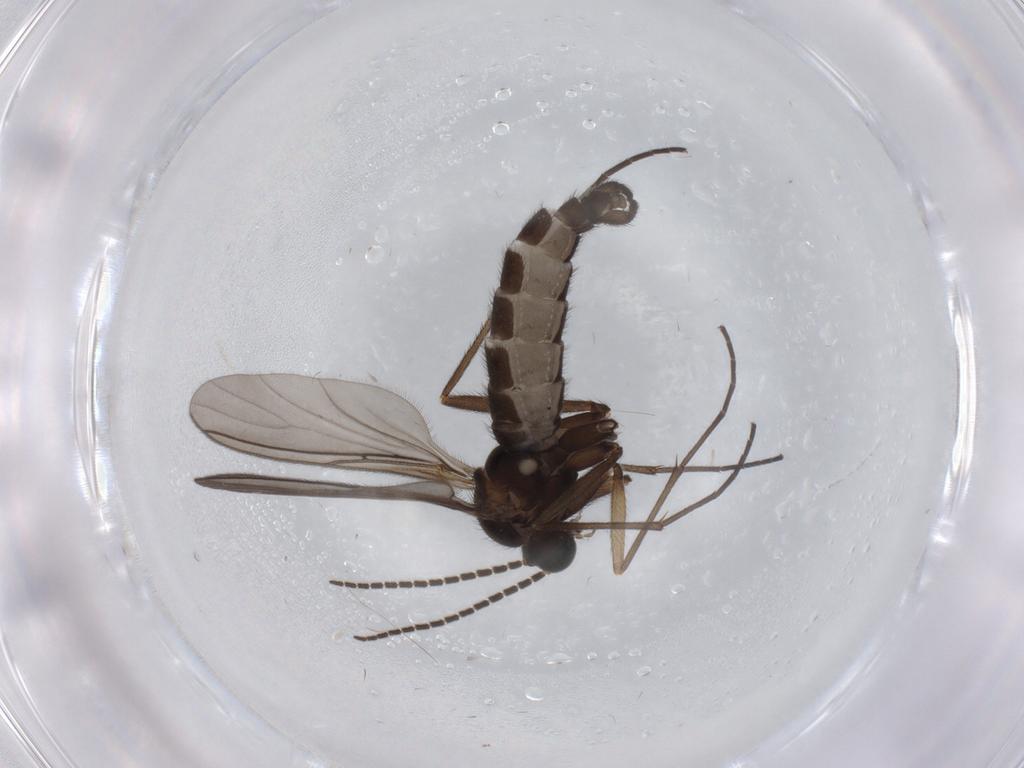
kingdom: Animalia
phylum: Arthropoda
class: Insecta
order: Diptera
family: Sciaridae
